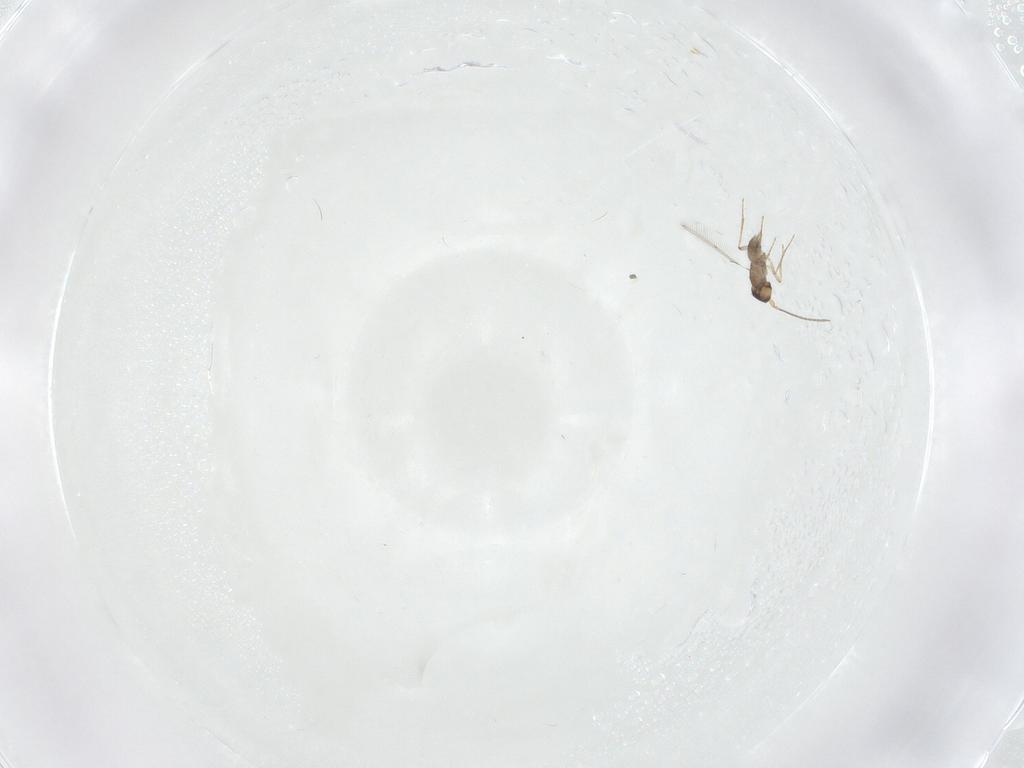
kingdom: Animalia
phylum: Arthropoda
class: Insecta
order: Hymenoptera
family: Mymaridae
